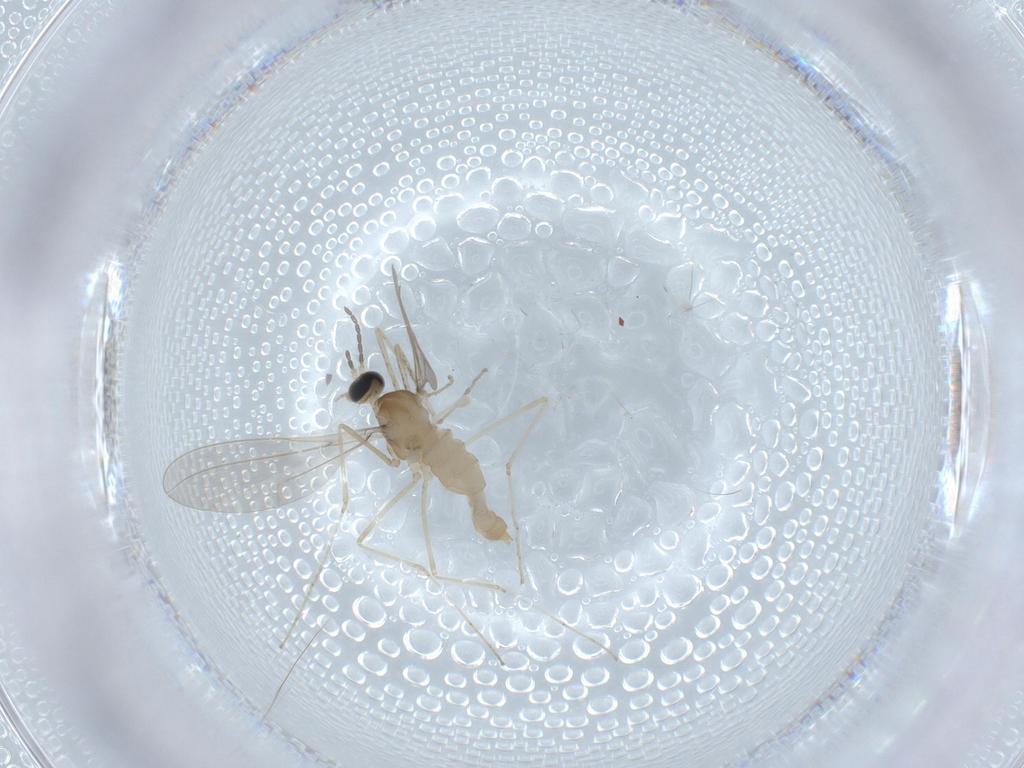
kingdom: Animalia
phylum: Arthropoda
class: Insecta
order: Diptera
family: Cecidomyiidae
